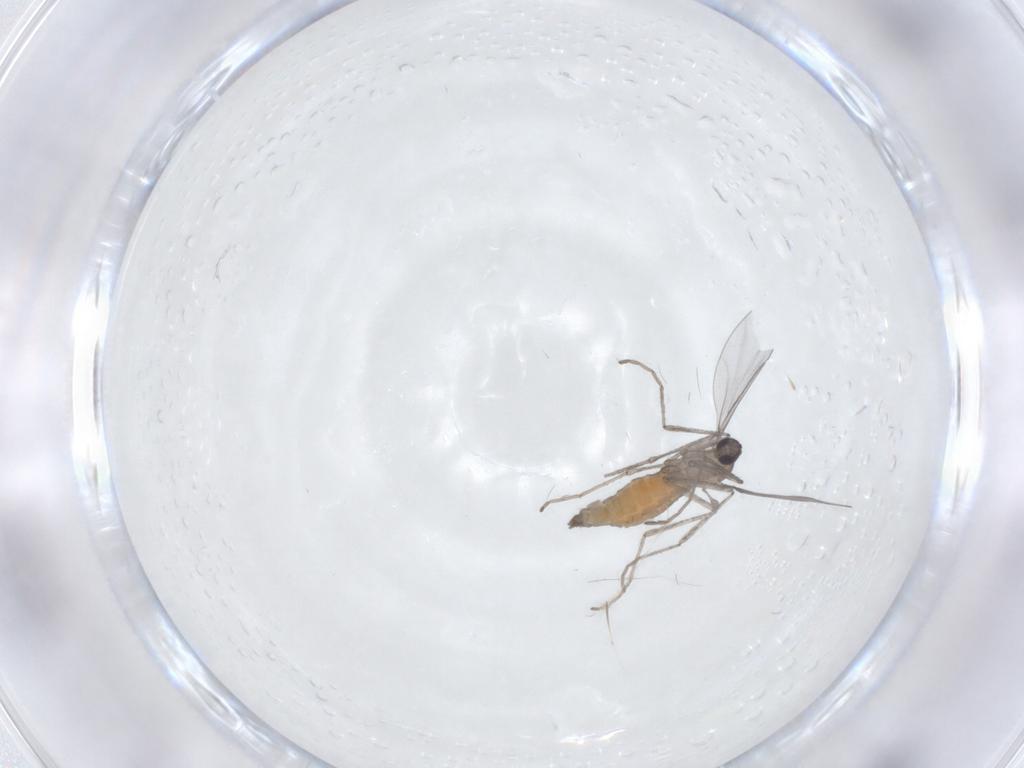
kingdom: Animalia
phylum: Arthropoda
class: Insecta
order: Diptera
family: Cecidomyiidae
